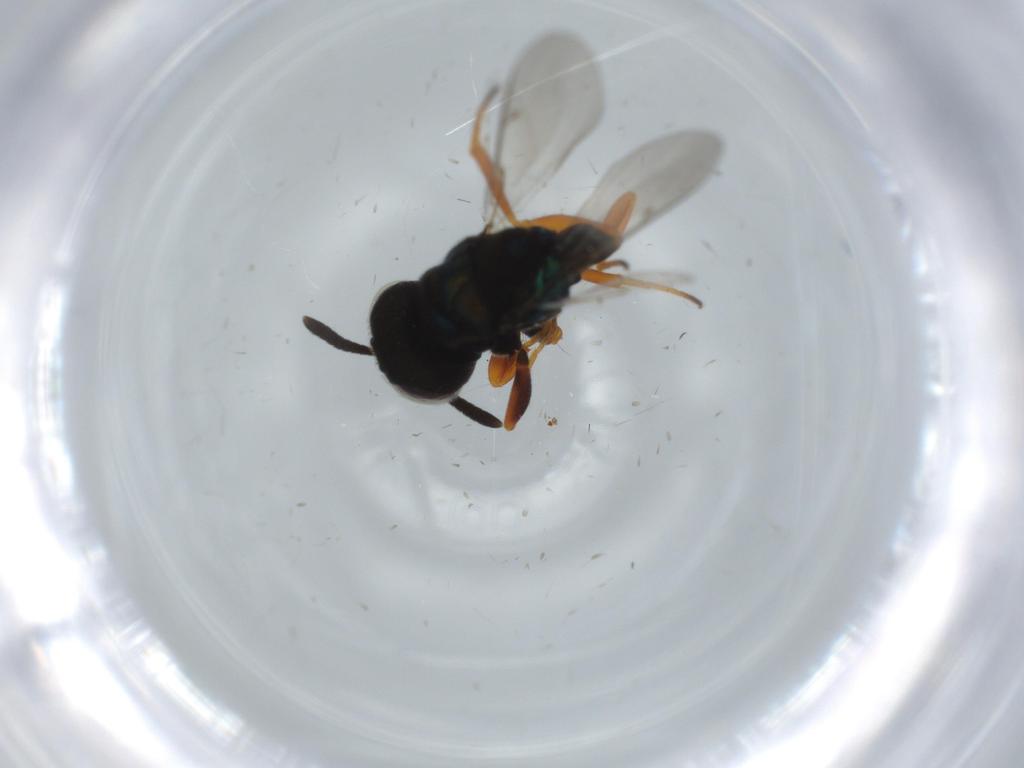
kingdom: Animalia
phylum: Arthropoda
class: Insecta
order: Hymenoptera
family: Lyciscidae
